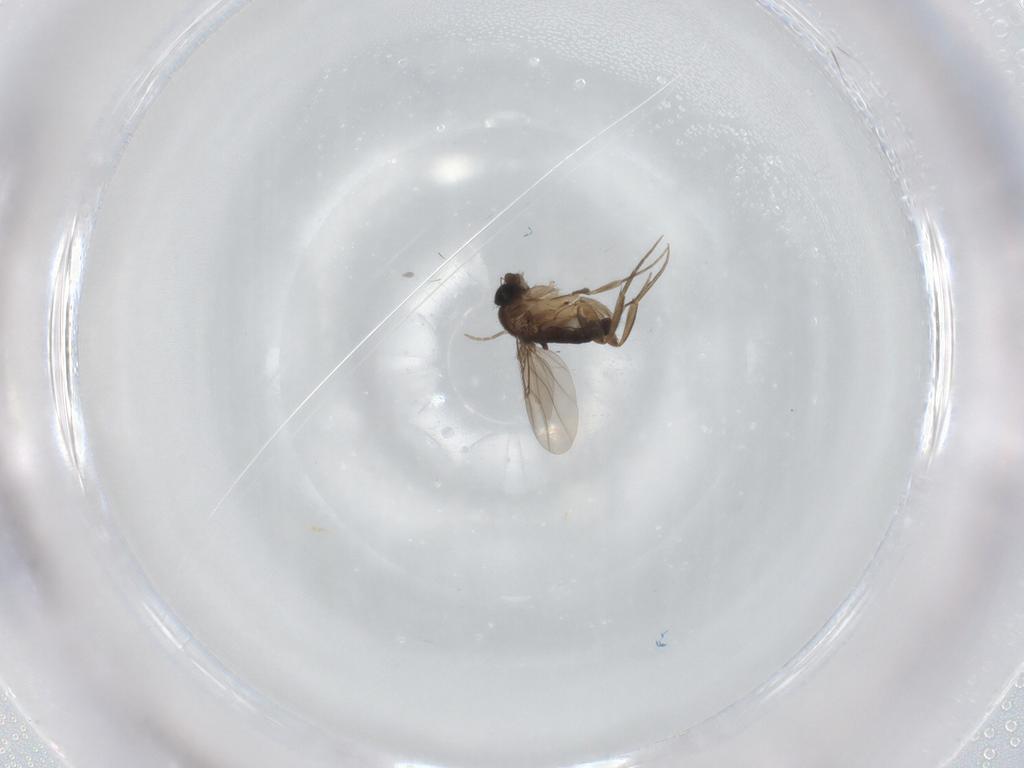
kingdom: Animalia
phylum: Arthropoda
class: Insecta
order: Diptera
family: Phoridae
